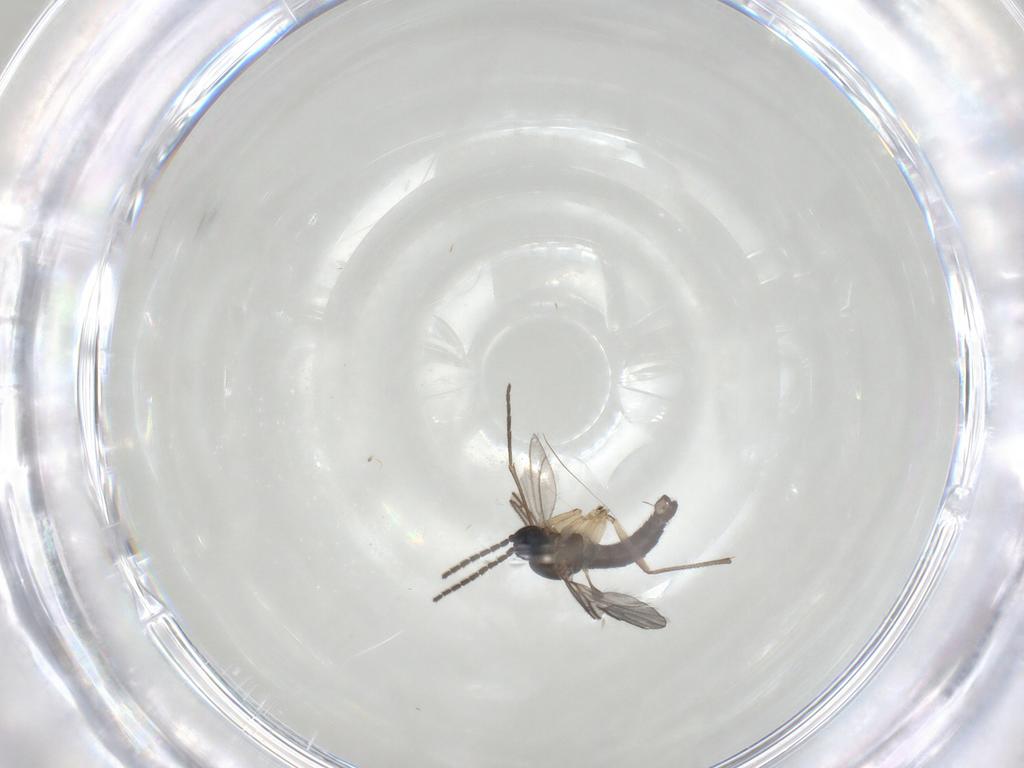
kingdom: Animalia
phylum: Arthropoda
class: Insecta
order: Diptera
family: Sciaridae
